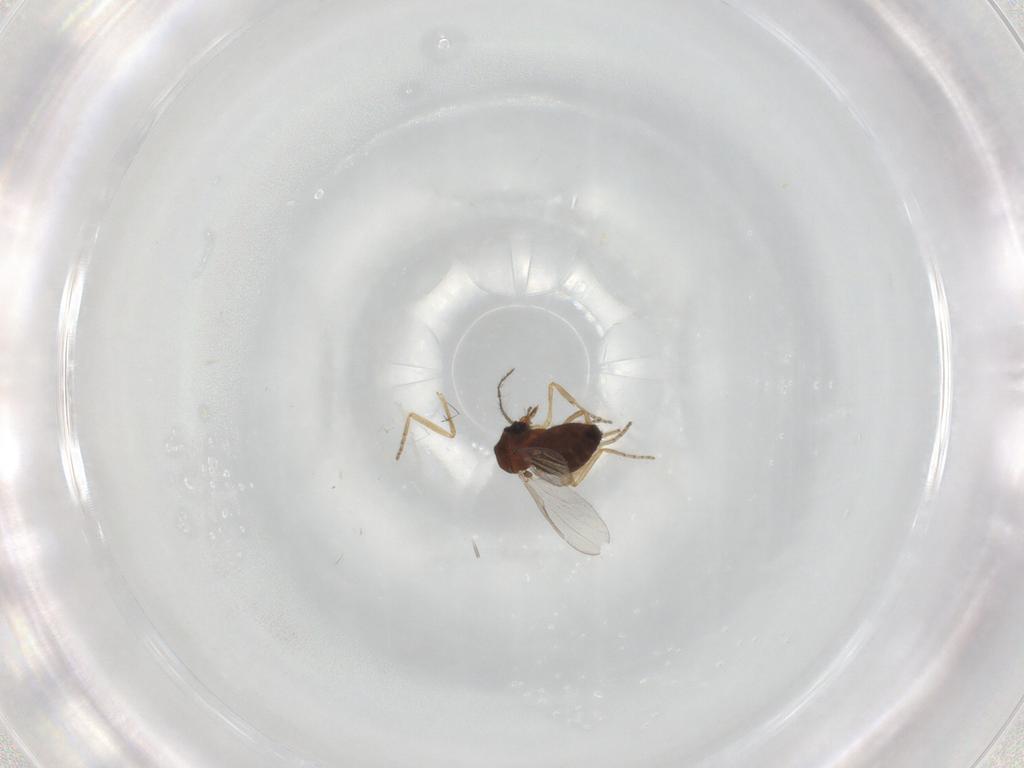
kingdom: Animalia
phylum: Arthropoda
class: Insecta
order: Diptera
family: Ceratopogonidae
